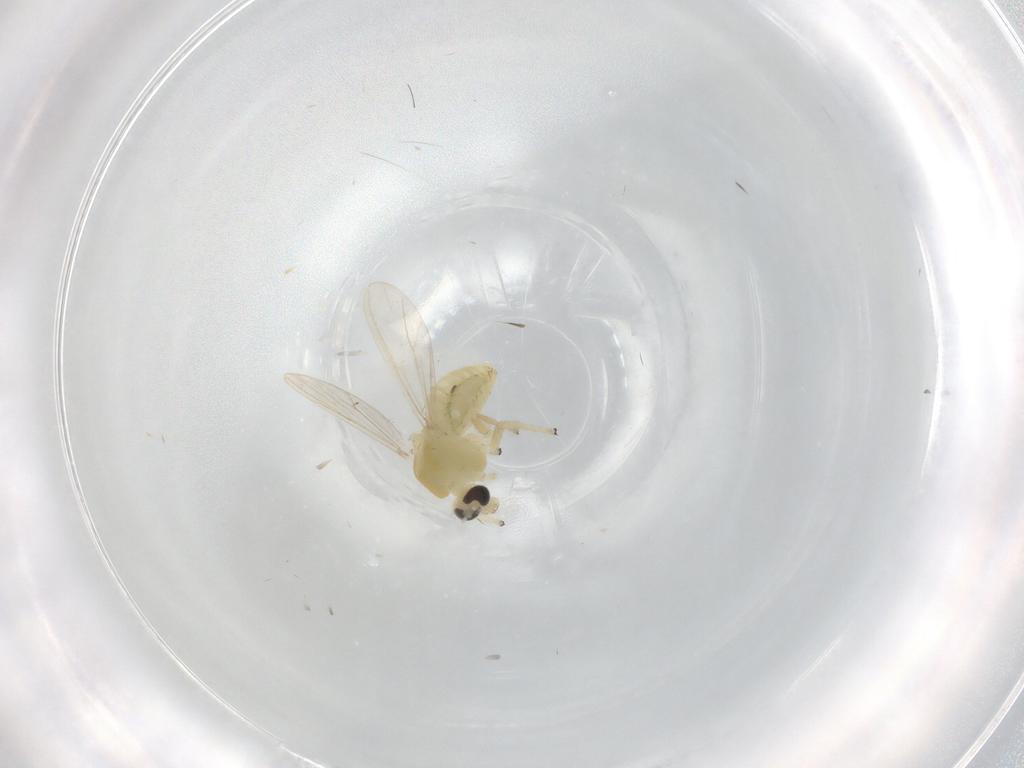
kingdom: Animalia
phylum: Arthropoda
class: Insecta
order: Diptera
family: Chironomidae
